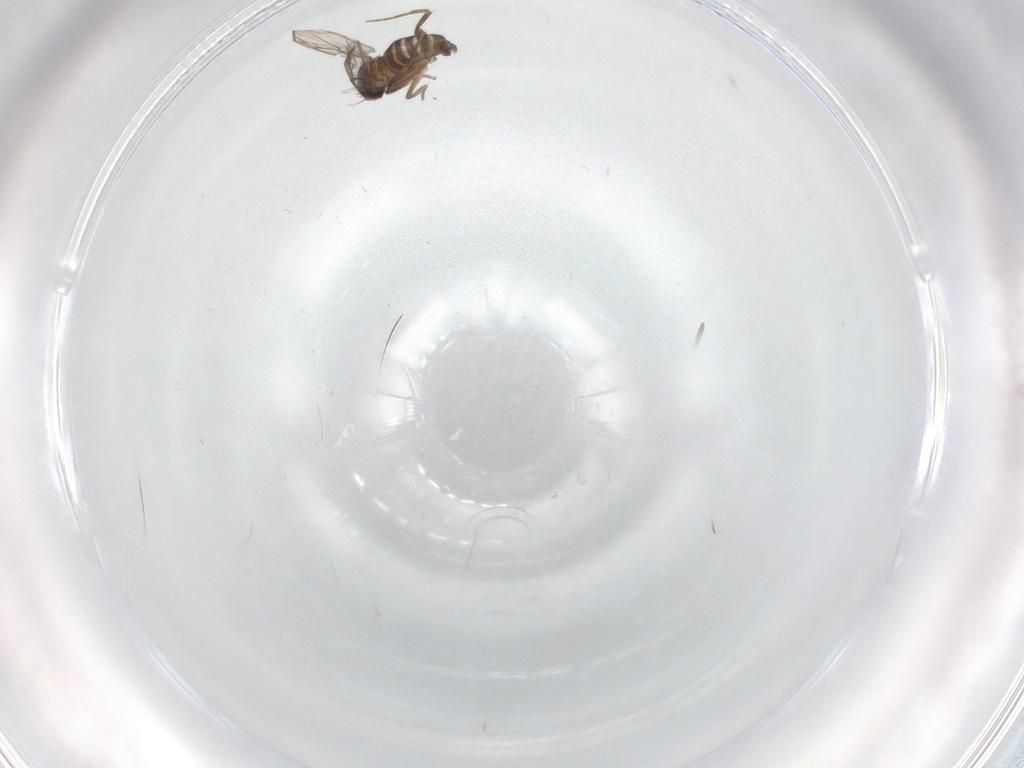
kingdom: Animalia
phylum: Arthropoda
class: Insecta
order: Diptera
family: Phoridae
